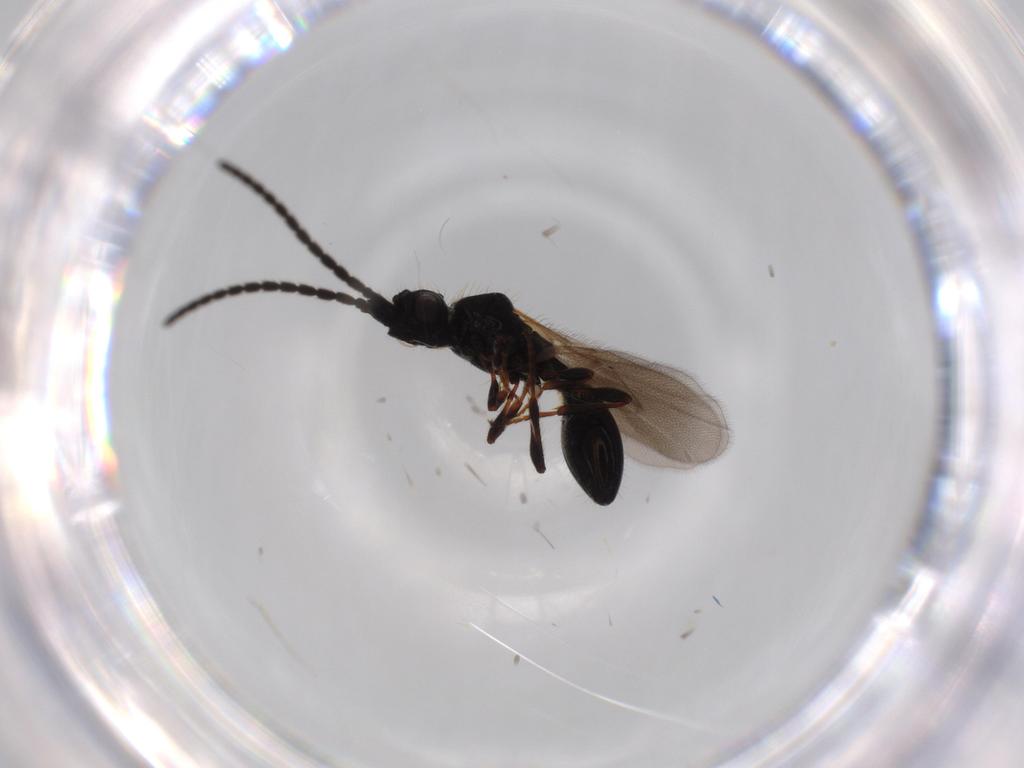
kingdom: Animalia
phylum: Arthropoda
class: Insecta
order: Hymenoptera
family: Diapriidae
